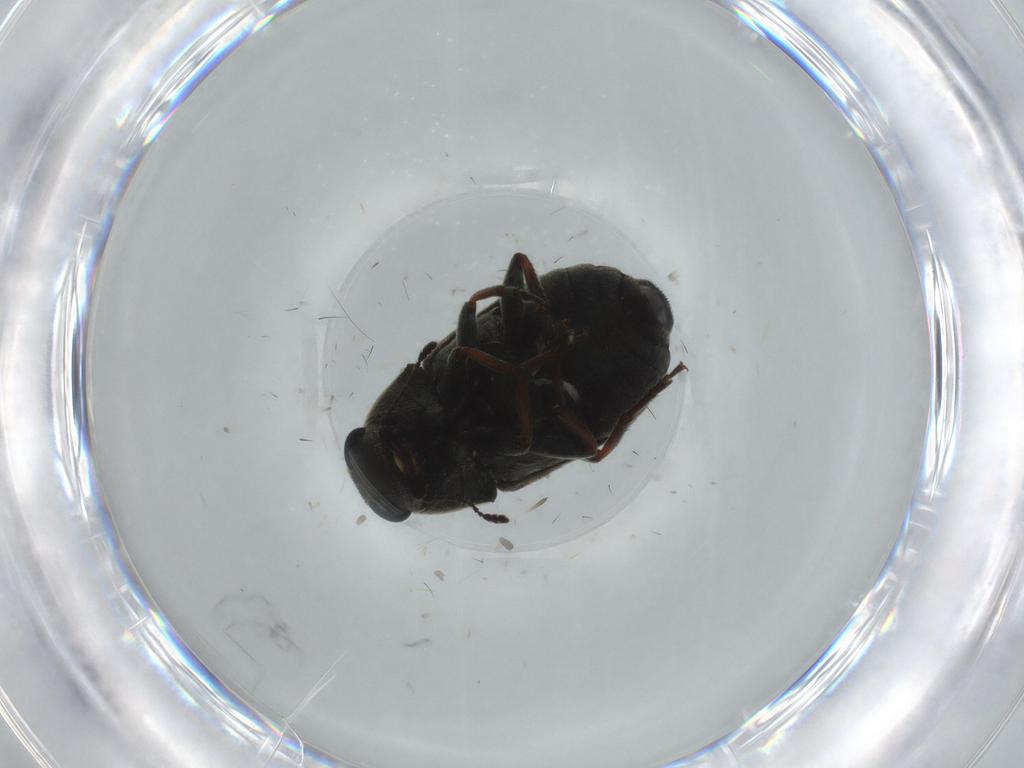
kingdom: Animalia
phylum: Arthropoda
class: Insecta
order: Coleoptera
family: Anthribidae
